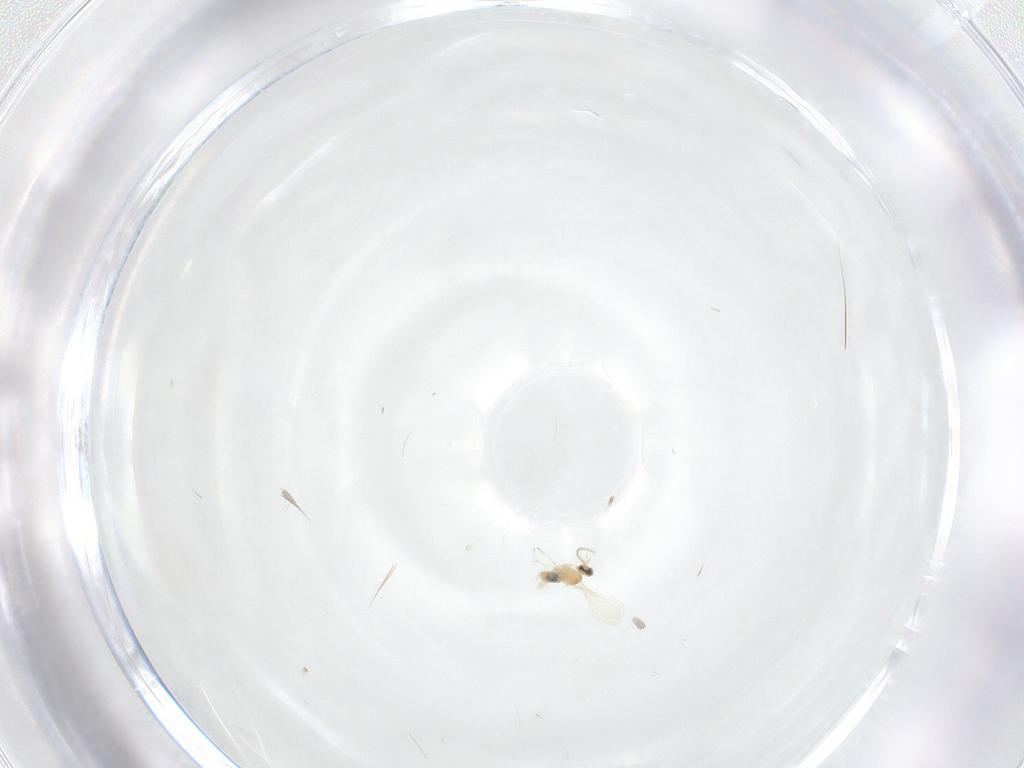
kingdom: Animalia
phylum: Arthropoda
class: Insecta
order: Diptera
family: Cecidomyiidae
